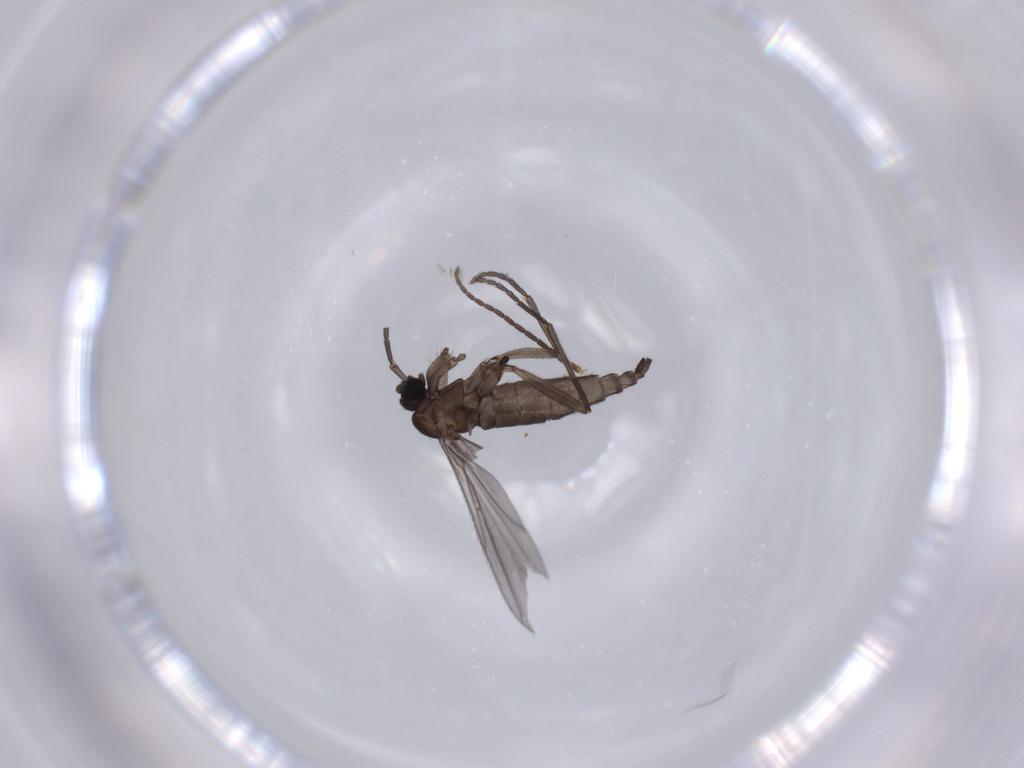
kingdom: Animalia
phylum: Arthropoda
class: Insecta
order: Diptera
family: Sciaridae
